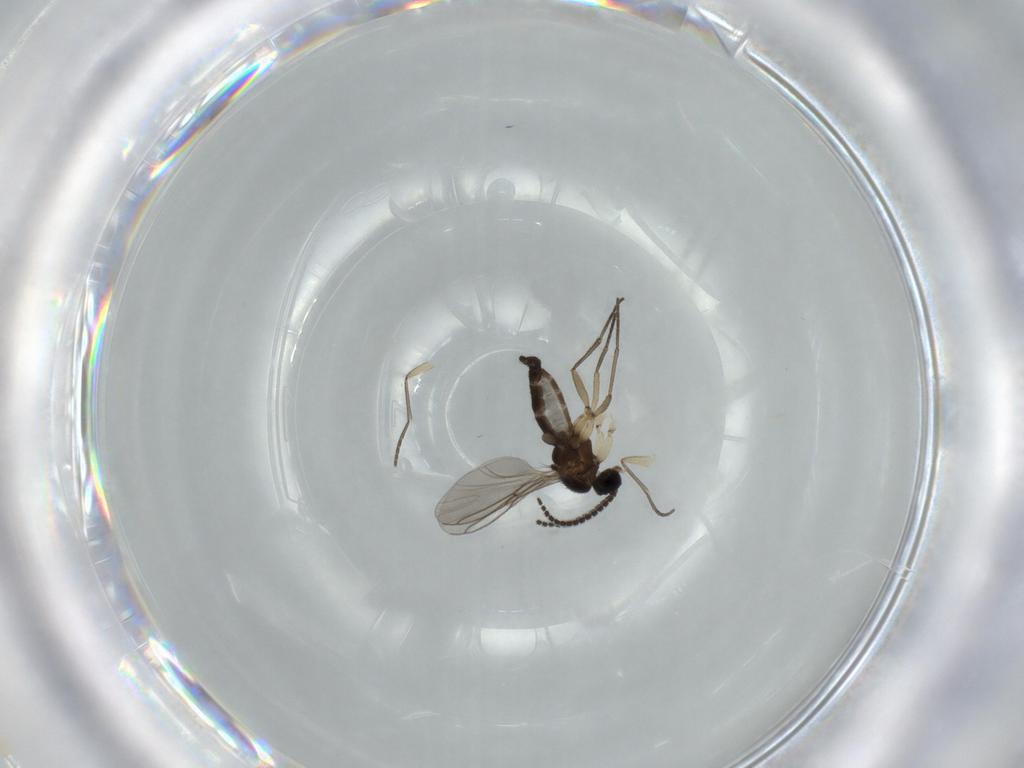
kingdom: Animalia
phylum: Arthropoda
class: Insecta
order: Diptera
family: Sciaridae
